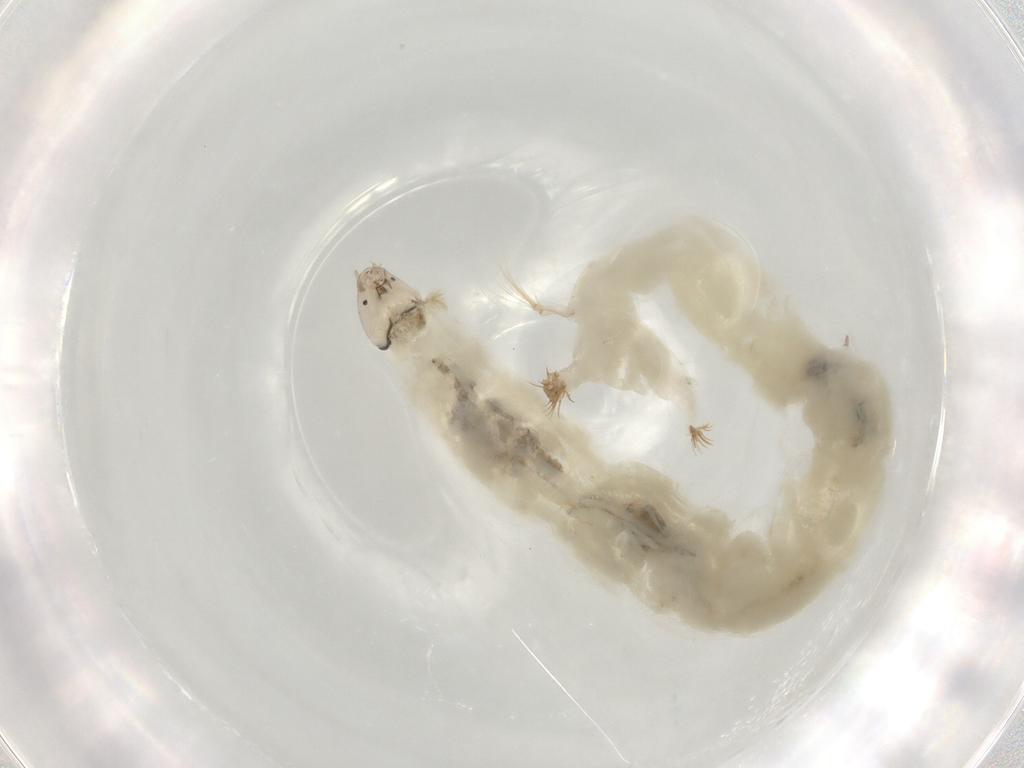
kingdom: Animalia
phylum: Arthropoda
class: Insecta
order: Diptera
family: Chironomidae
